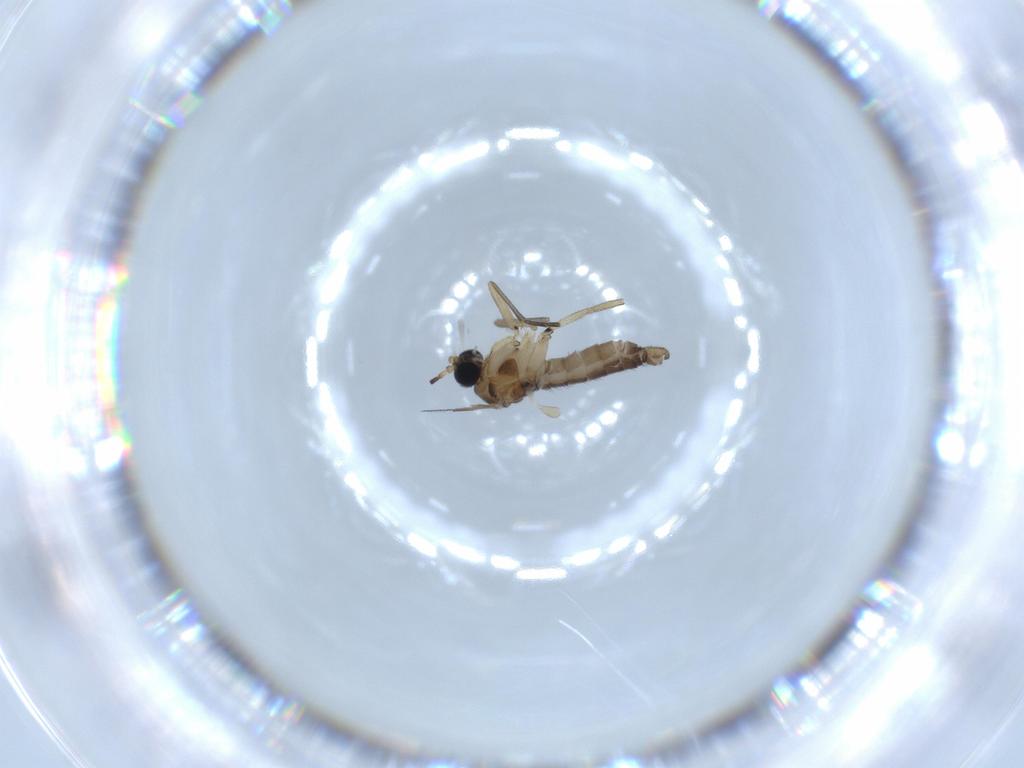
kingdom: Animalia
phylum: Arthropoda
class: Insecta
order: Diptera
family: Sciaridae
